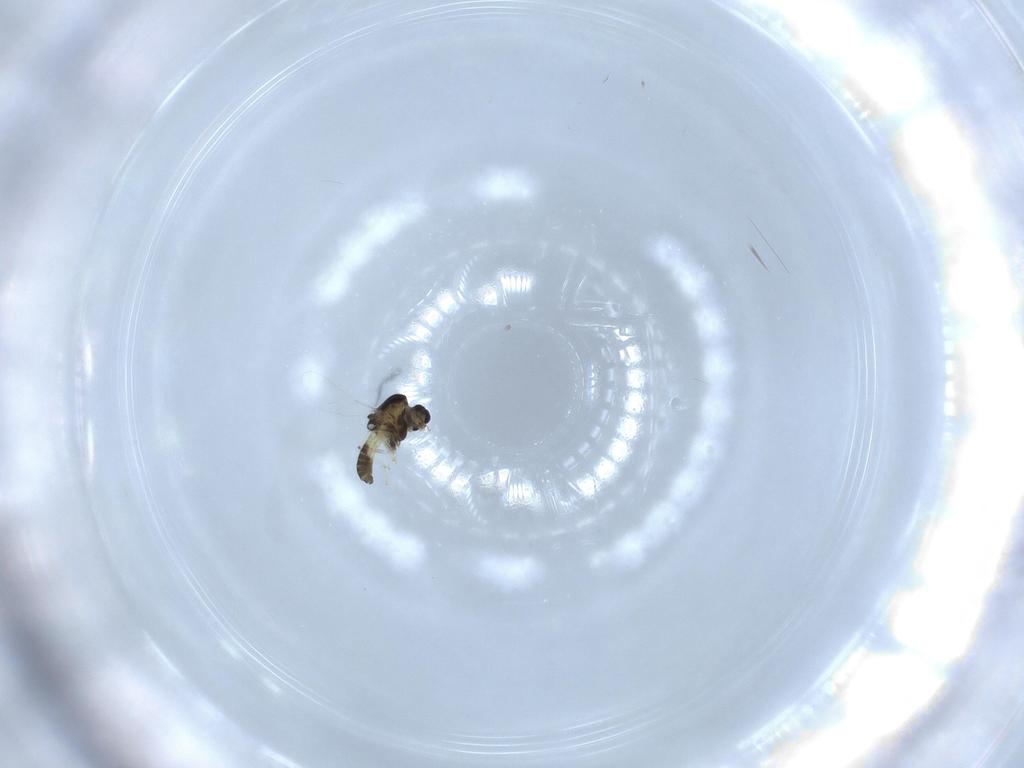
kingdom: Animalia
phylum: Arthropoda
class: Insecta
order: Diptera
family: Chironomidae
